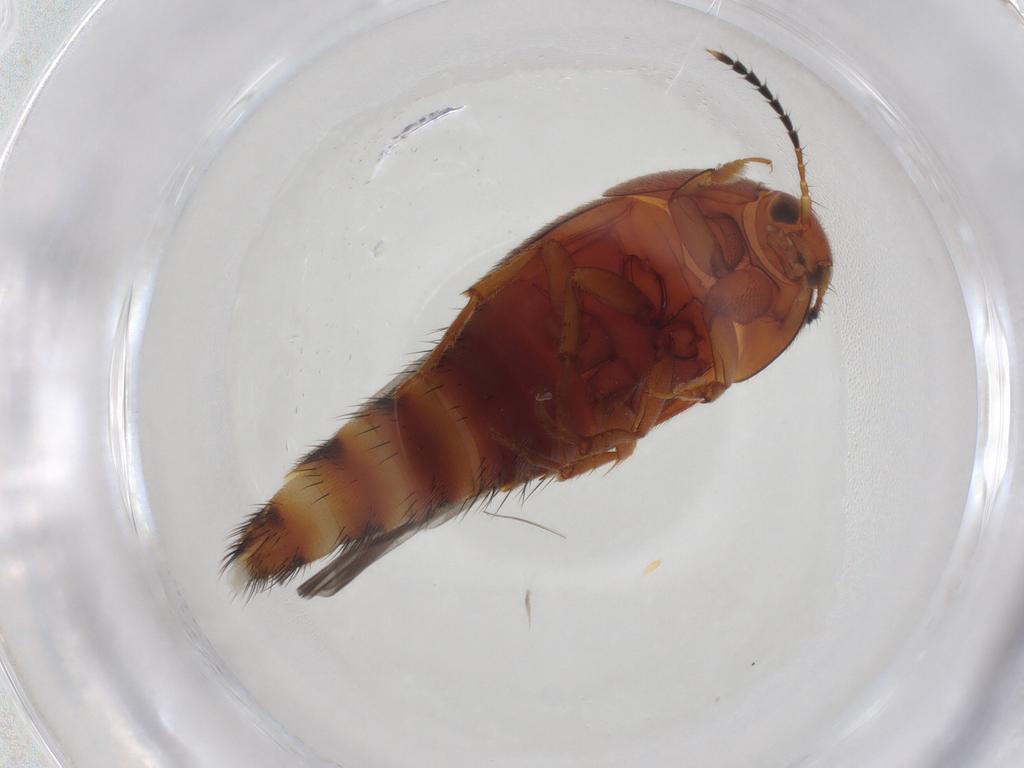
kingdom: Animalia
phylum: Arthropoda
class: Insecta
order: Coleoptera
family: Staphylinidae
